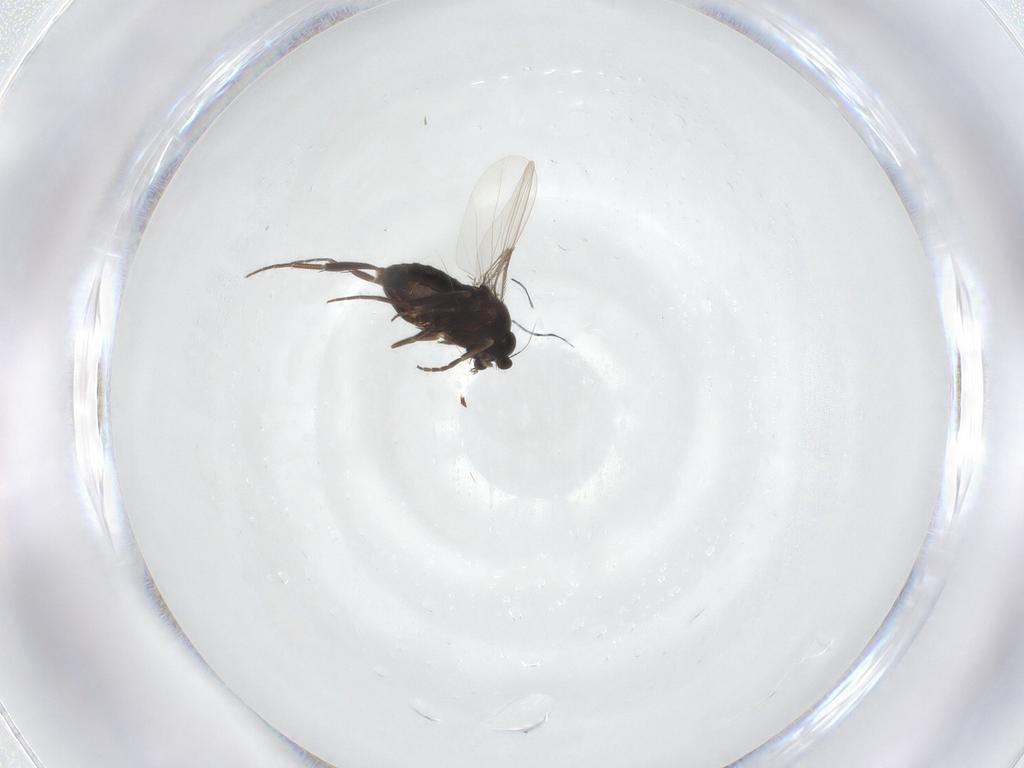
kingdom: Animalia
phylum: Arthropoda
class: Insecta
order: Diptera
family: Phoridae
